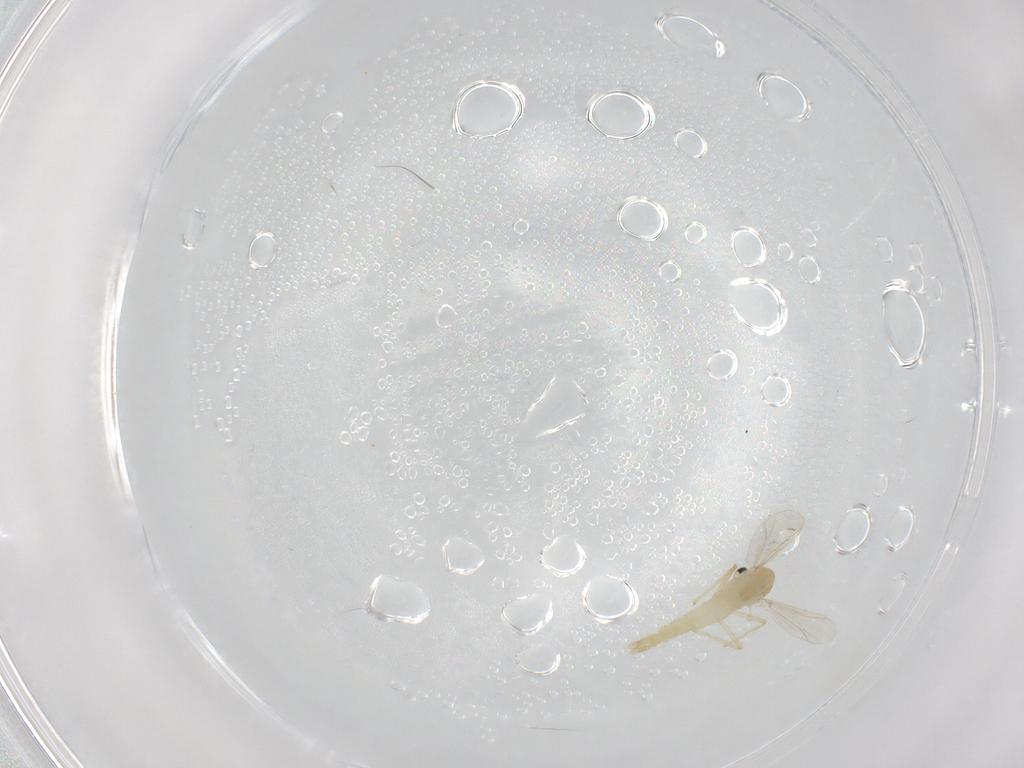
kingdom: Animalia
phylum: Arthropoda
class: Insecta
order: Diptera
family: Chironomidae
